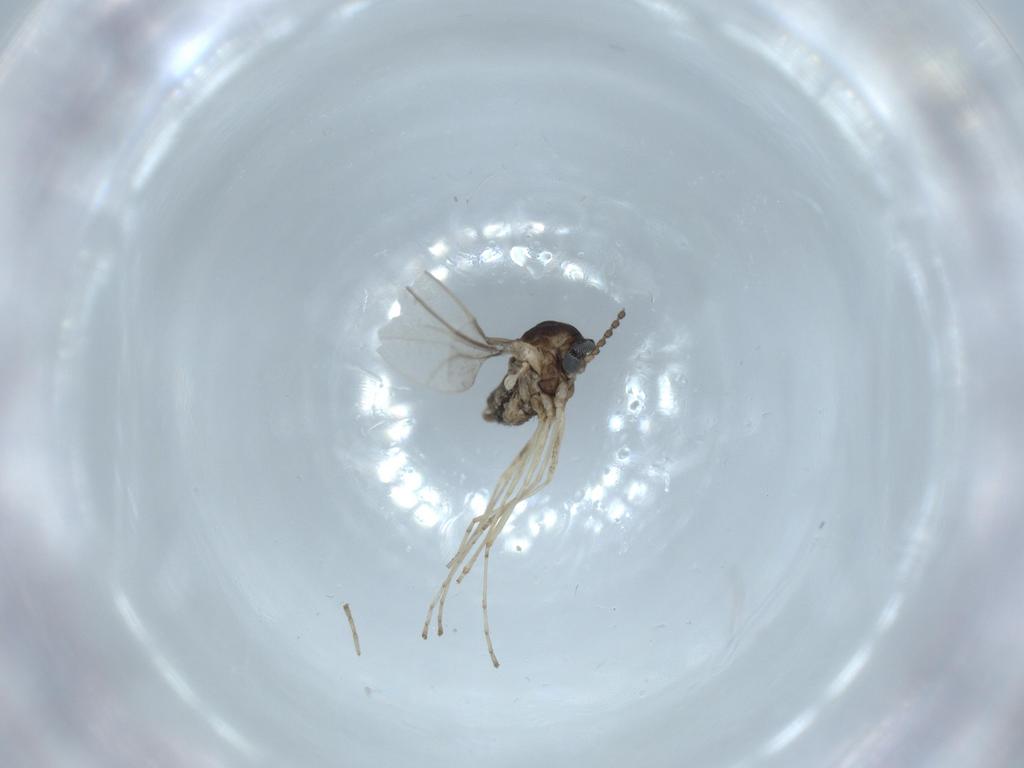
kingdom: Animalia
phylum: Arthropoda
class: Insecta
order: Diptera
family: Cecidomyiidae
